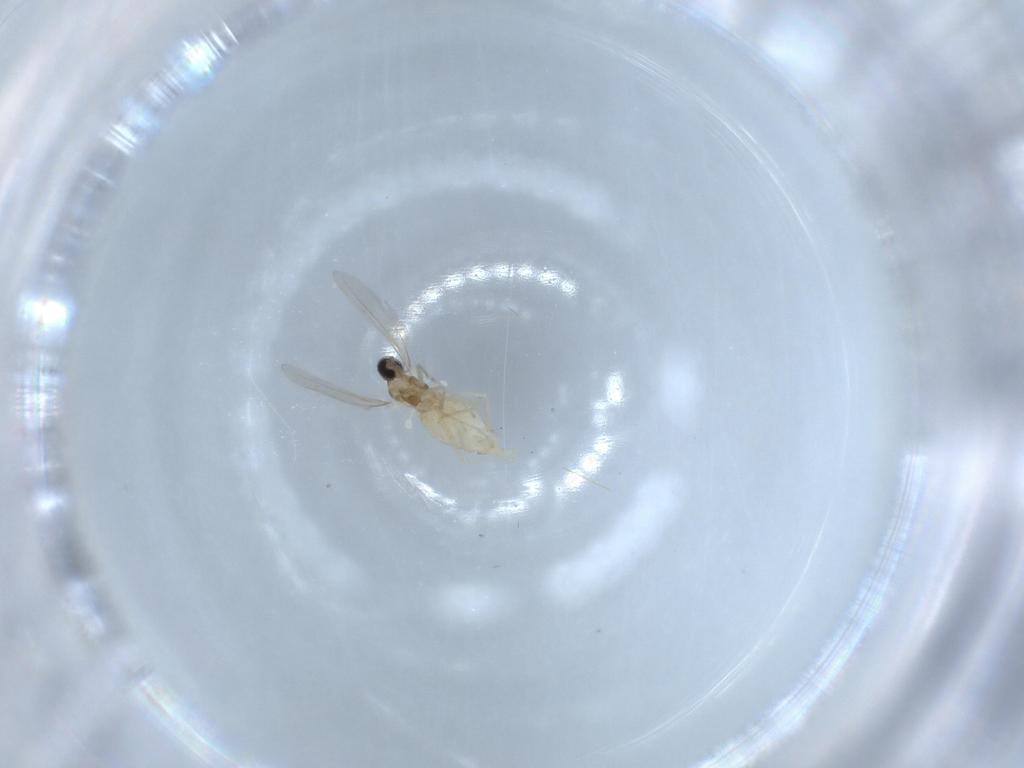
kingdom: Animalia
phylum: Arthropoda
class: Insecta
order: Diptera
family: Cecidomyiidae
